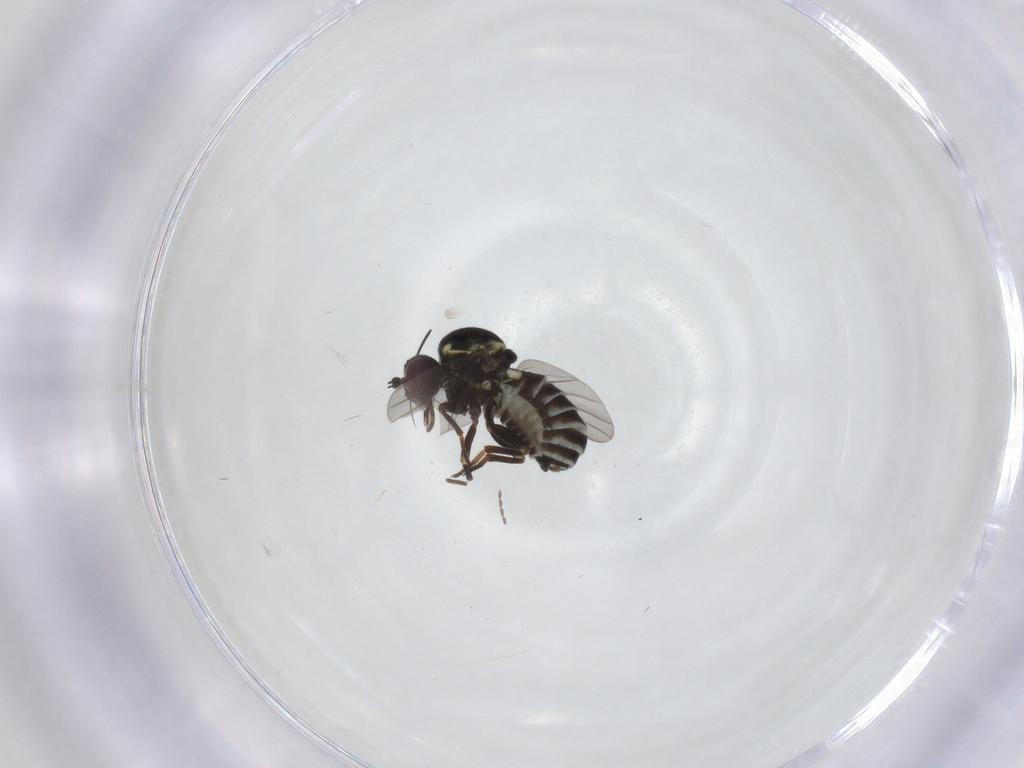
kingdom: Animalia
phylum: Arthropoda
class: Insecta
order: Diptera
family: Bombyliidae
